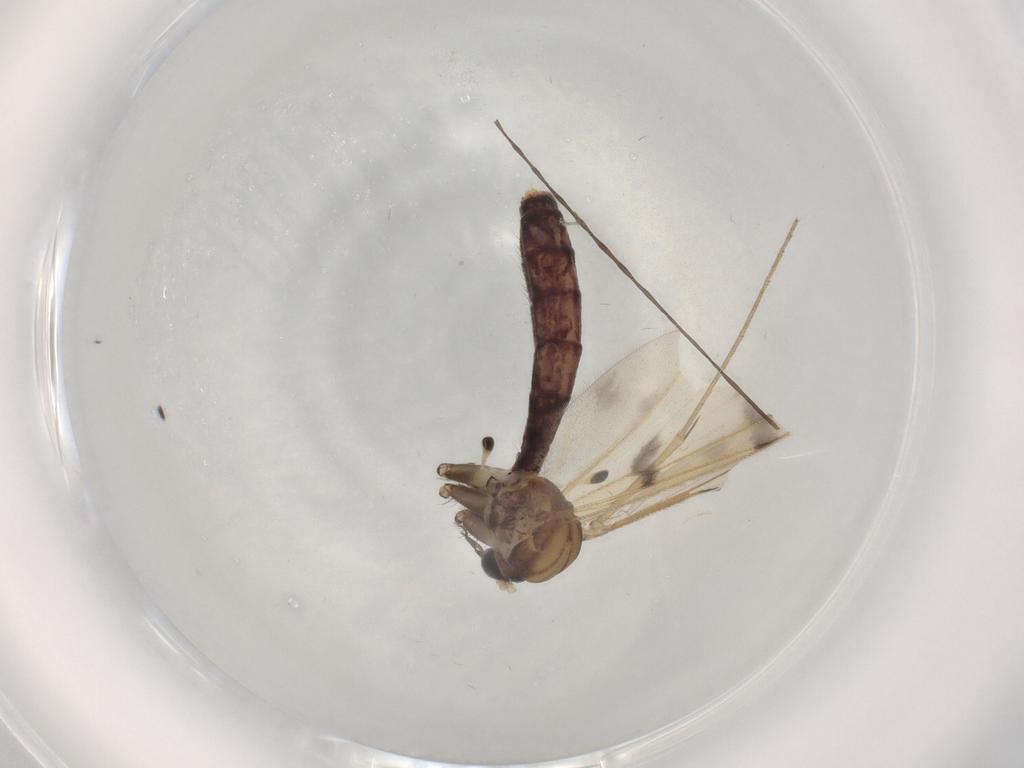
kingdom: Animalia
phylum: Arthropoda
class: Insecta
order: Diptera
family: Mycetophilidae
